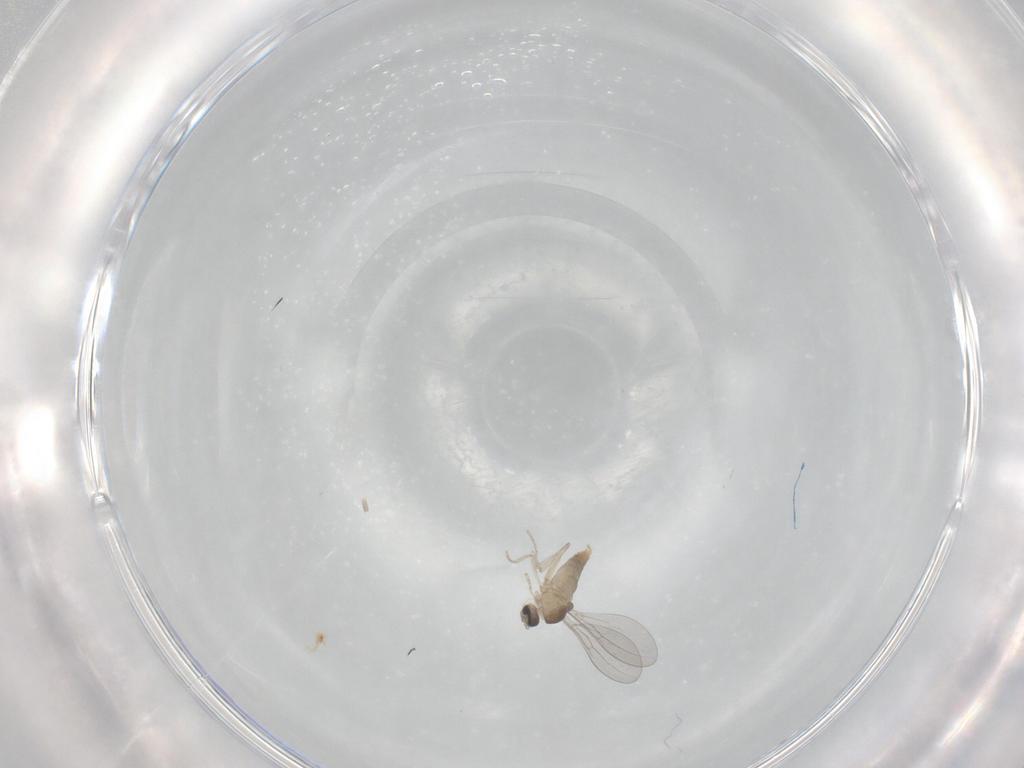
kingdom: Animalia
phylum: Arthropoda
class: Insecta
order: Diptera
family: Cecidomyiidae
